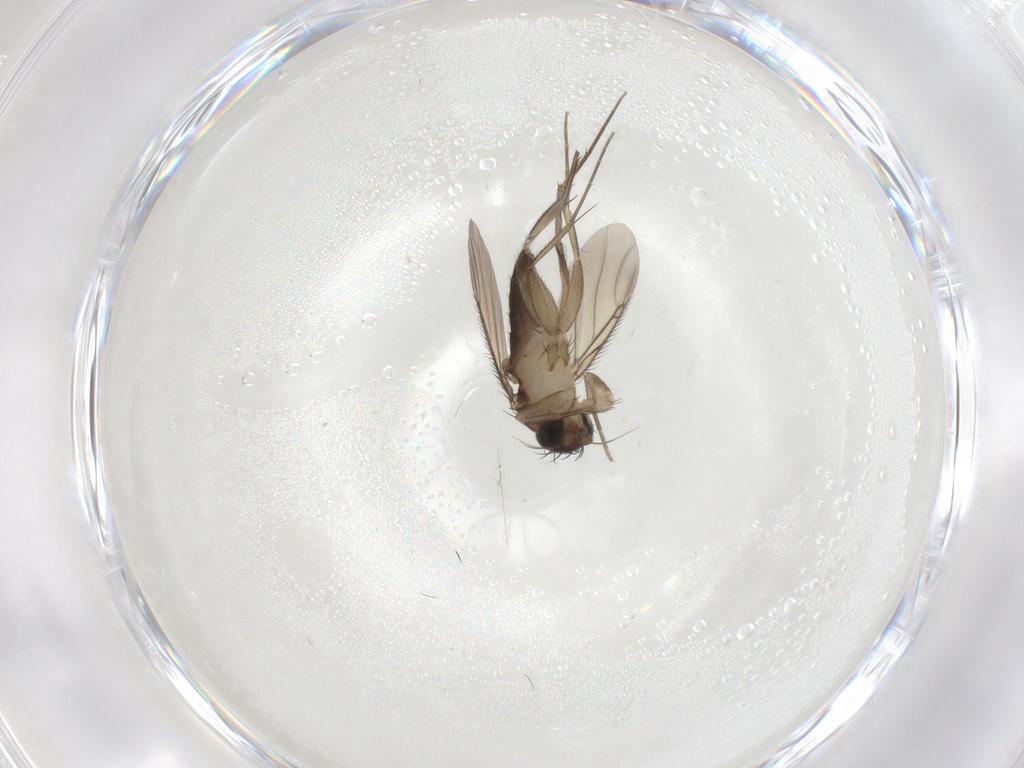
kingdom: Animalia
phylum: Arthropoda
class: Insecta
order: Diptera
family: Phoridae
